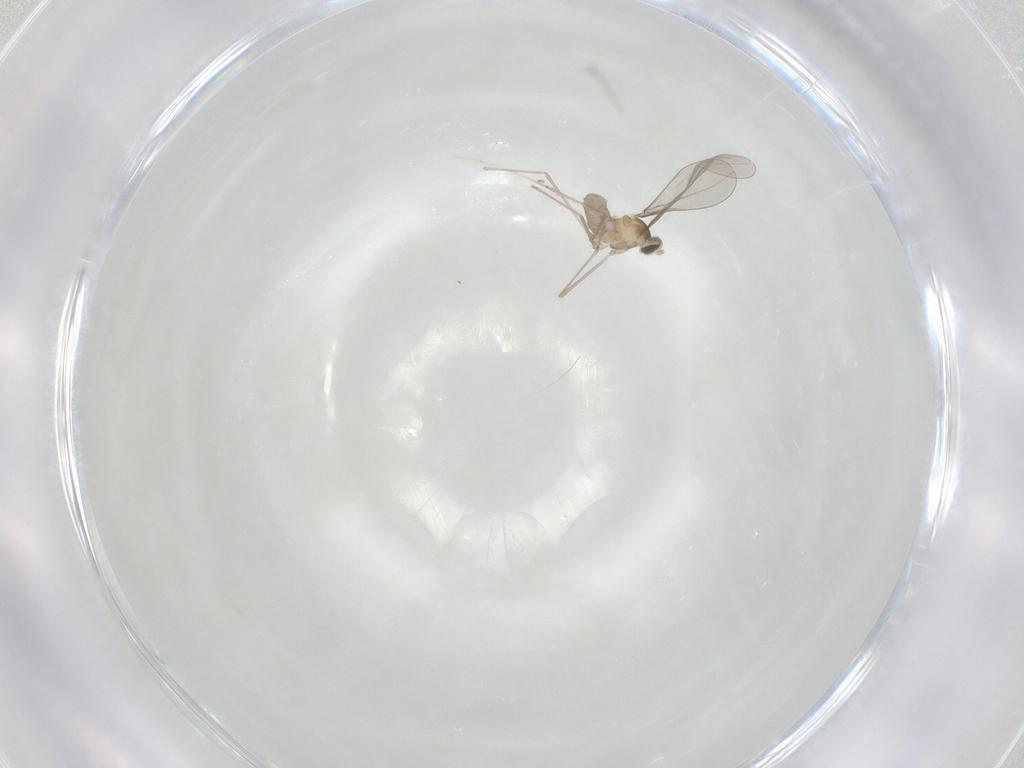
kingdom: Animalia
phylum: Arthropoda
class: Insecta
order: Diptera
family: Cecidomyiidae
